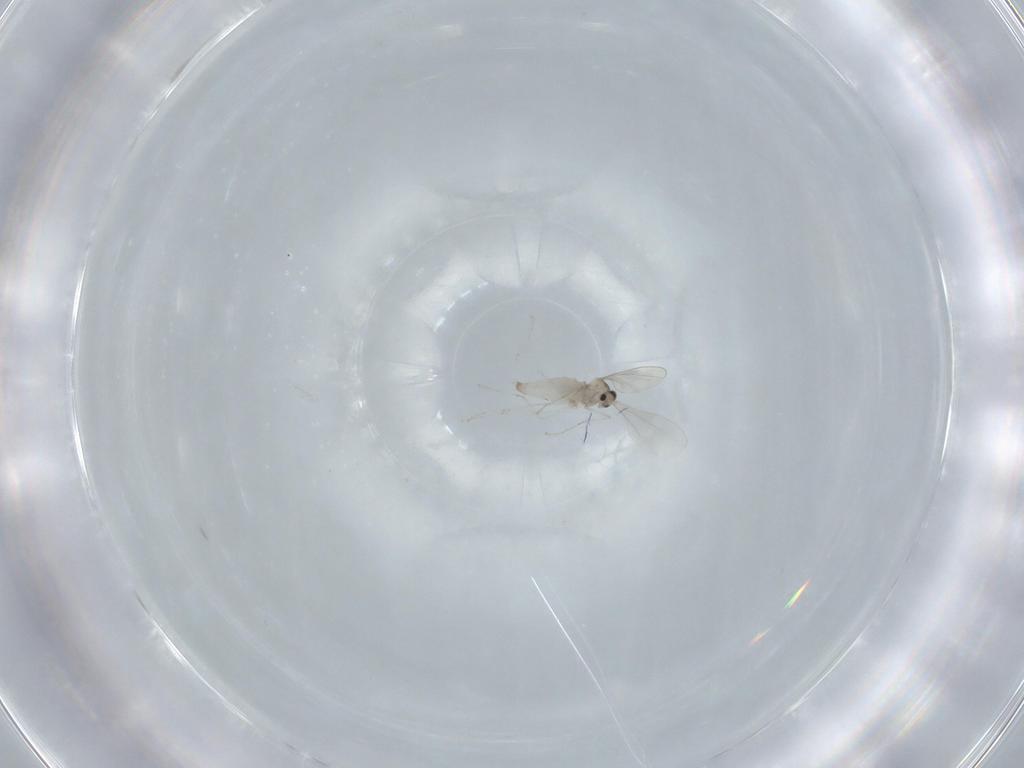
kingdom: Animalia
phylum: Arthropoda
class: Insecta
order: Diptera
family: Cecidomyiidae
